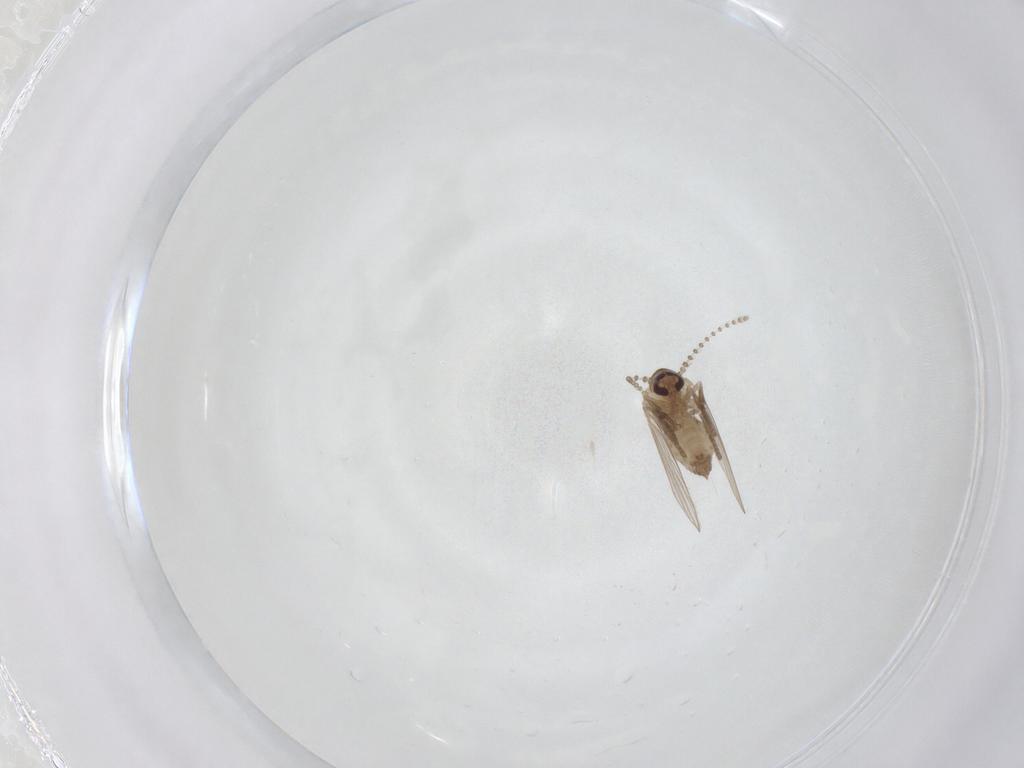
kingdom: Animalia
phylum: Arthropoda
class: Insecta
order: Diptera
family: Psychodidae
